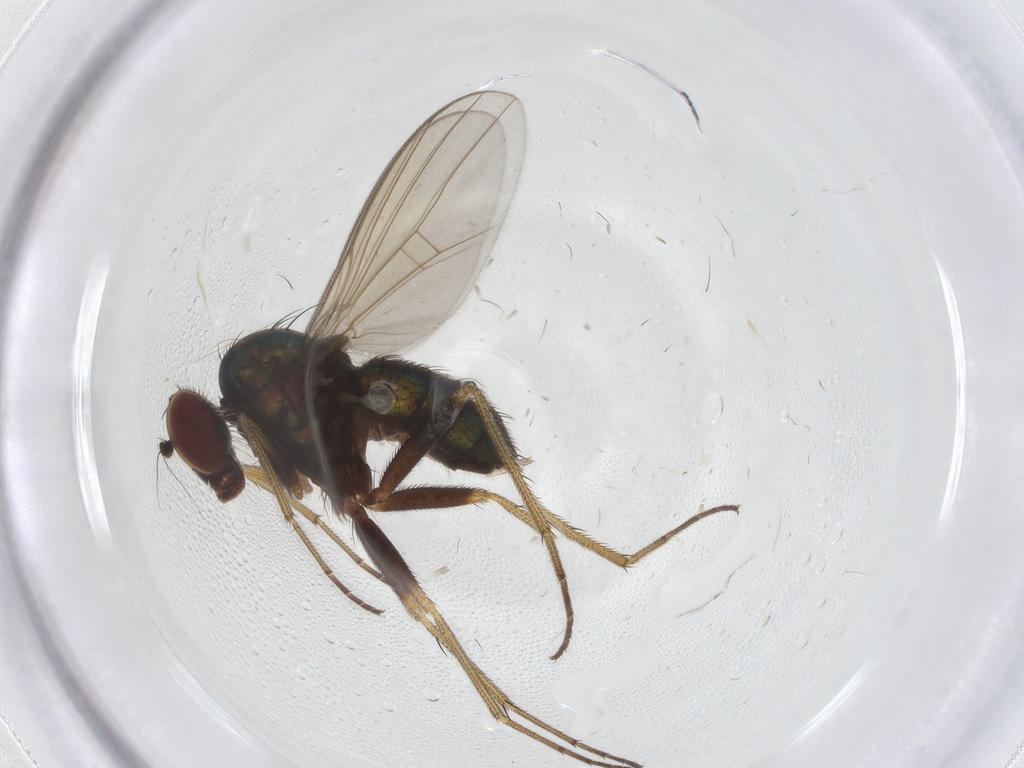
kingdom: Animalia
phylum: Arthropoda
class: Insecta
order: Diptera
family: Dolichopodidae
